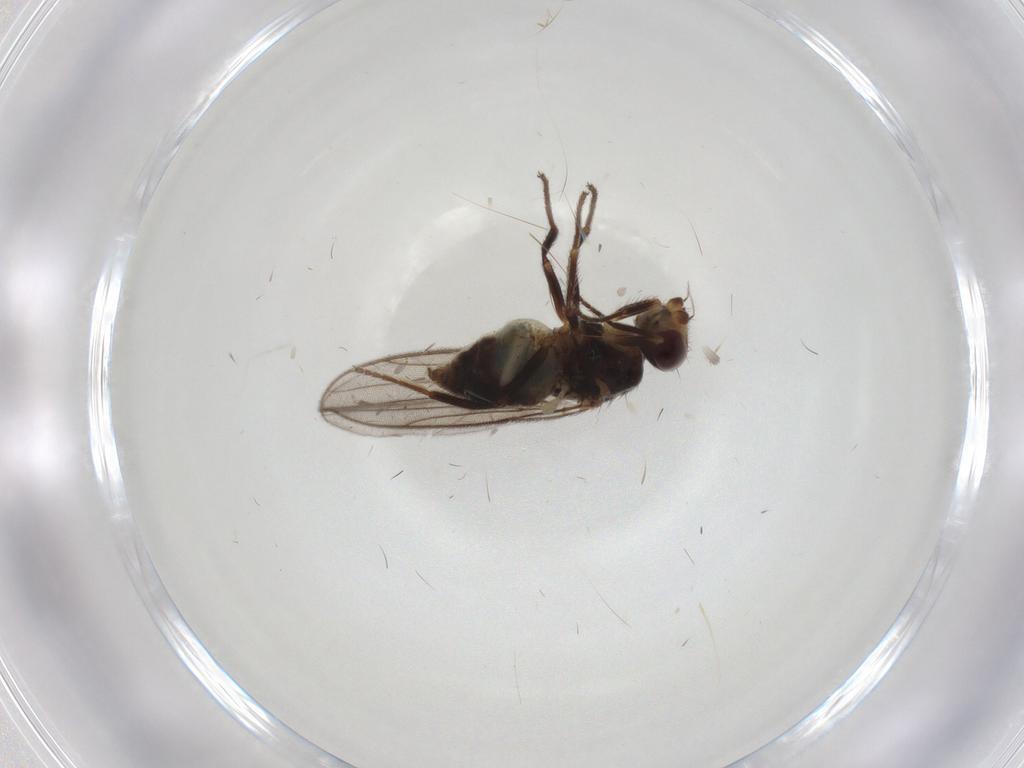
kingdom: Animalia
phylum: Arthropoda
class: Insecta
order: Diptera
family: Chloropidae
